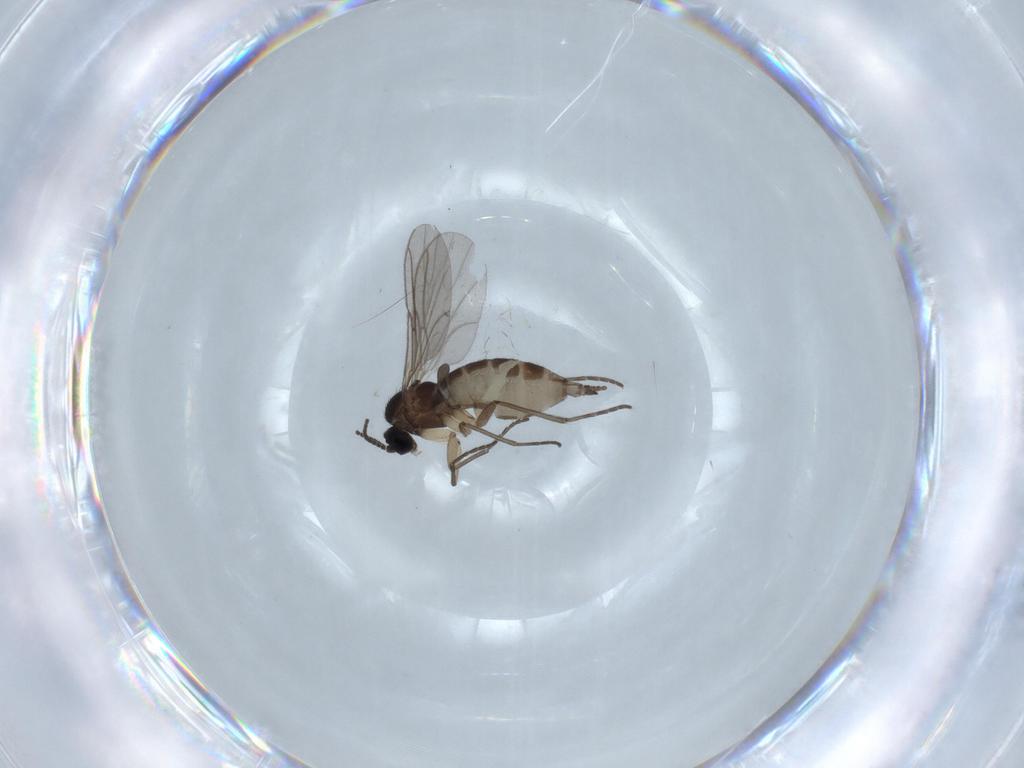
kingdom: Animalia
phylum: Arthropoda
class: Insecta
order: Diptera
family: Sciaridae
